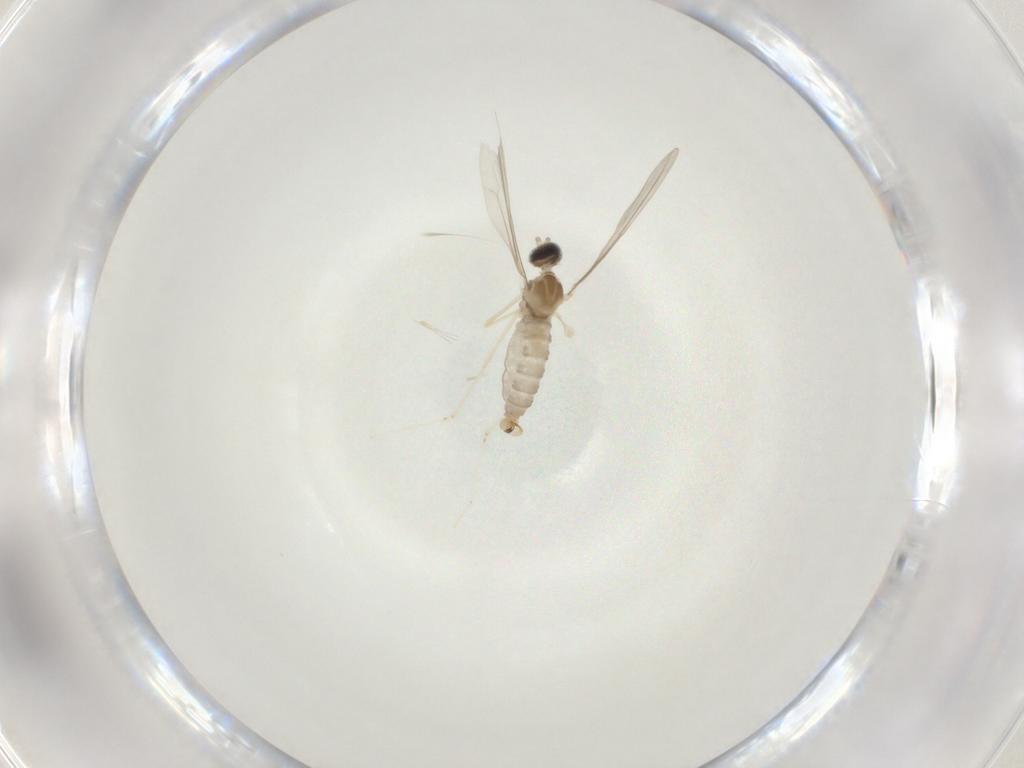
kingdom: Animalia
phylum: Arthropoda
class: Insecta
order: Diptera
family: Cecidomyiidae
